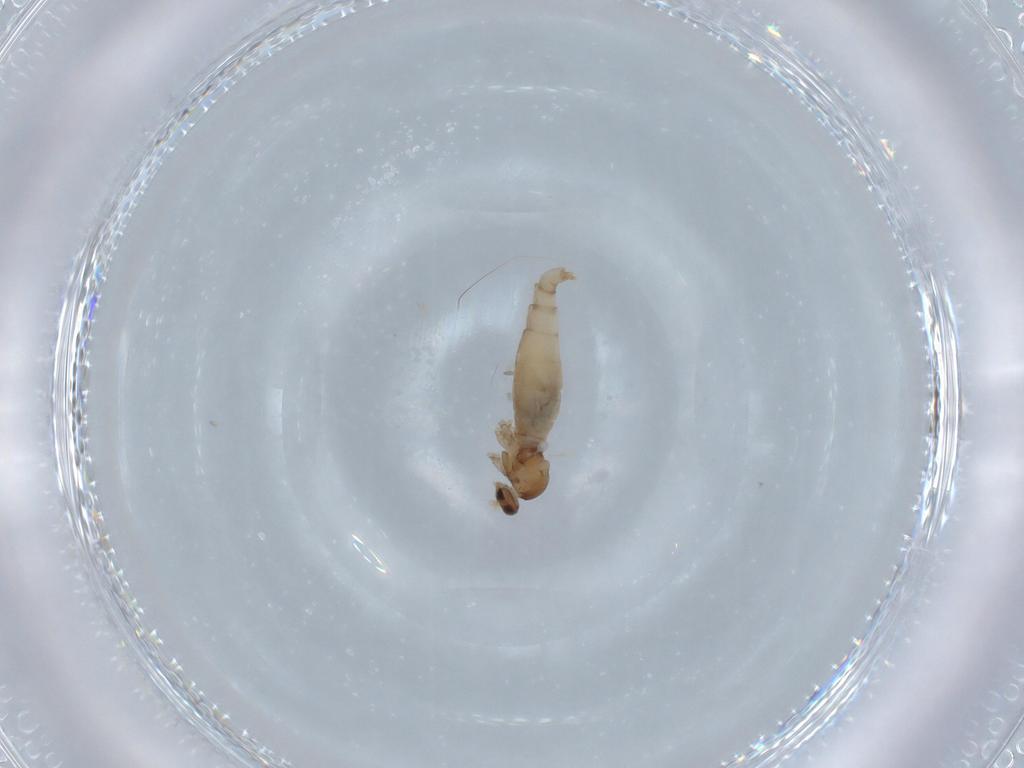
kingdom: Animalia
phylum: Arthropoda
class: Insecta
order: Diptera
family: Cecidomyiidae
